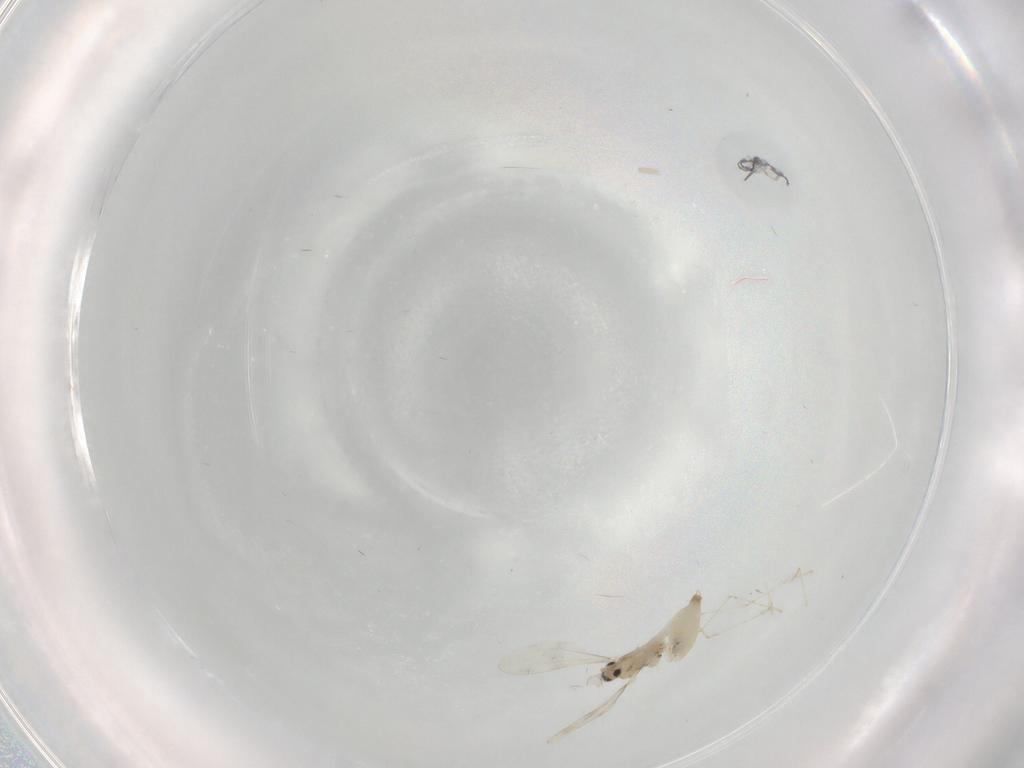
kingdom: Animalia
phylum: Arthropoda
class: Insecta
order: Diptera
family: Cecidomyiidae
